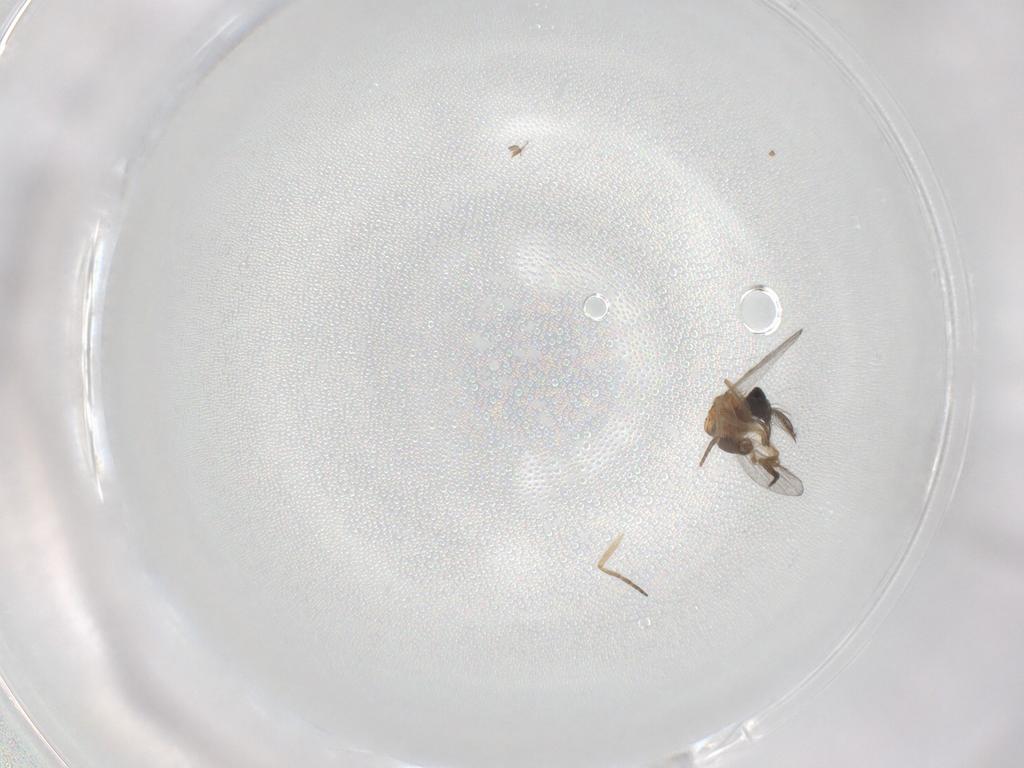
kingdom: Animalia
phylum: Arthropoda
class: Insecta
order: Diptera
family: Ceratopogonidae
